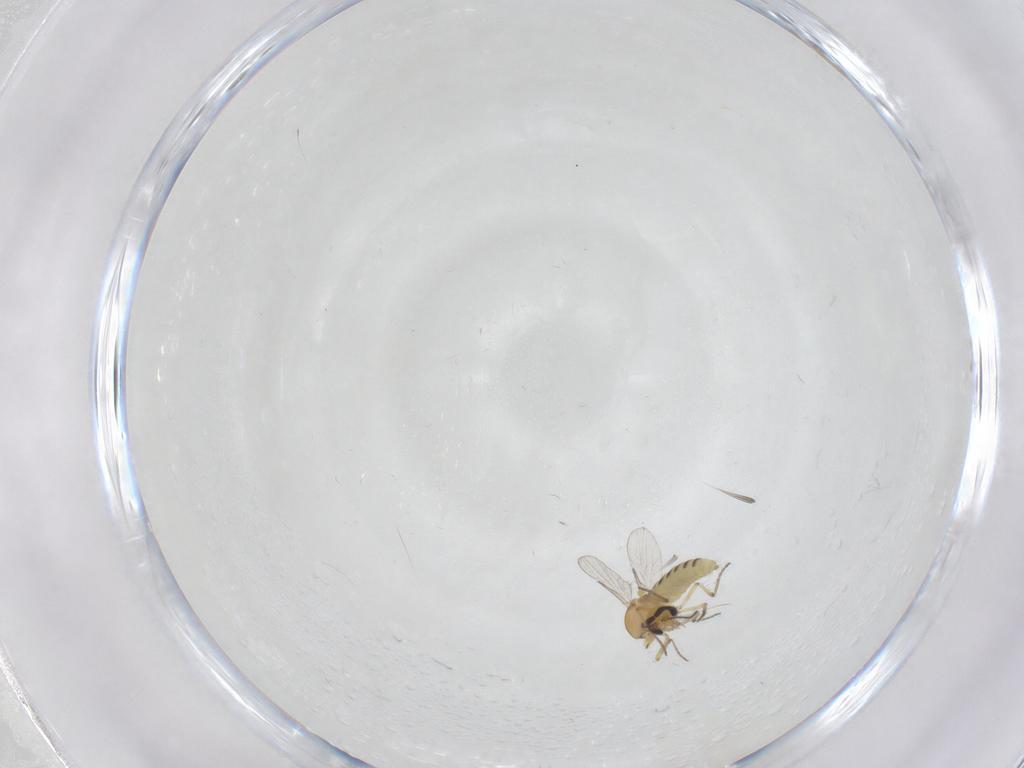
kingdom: Animalia
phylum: Arthropoda
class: Insecta
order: Diptera
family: Ceratopogonidae
